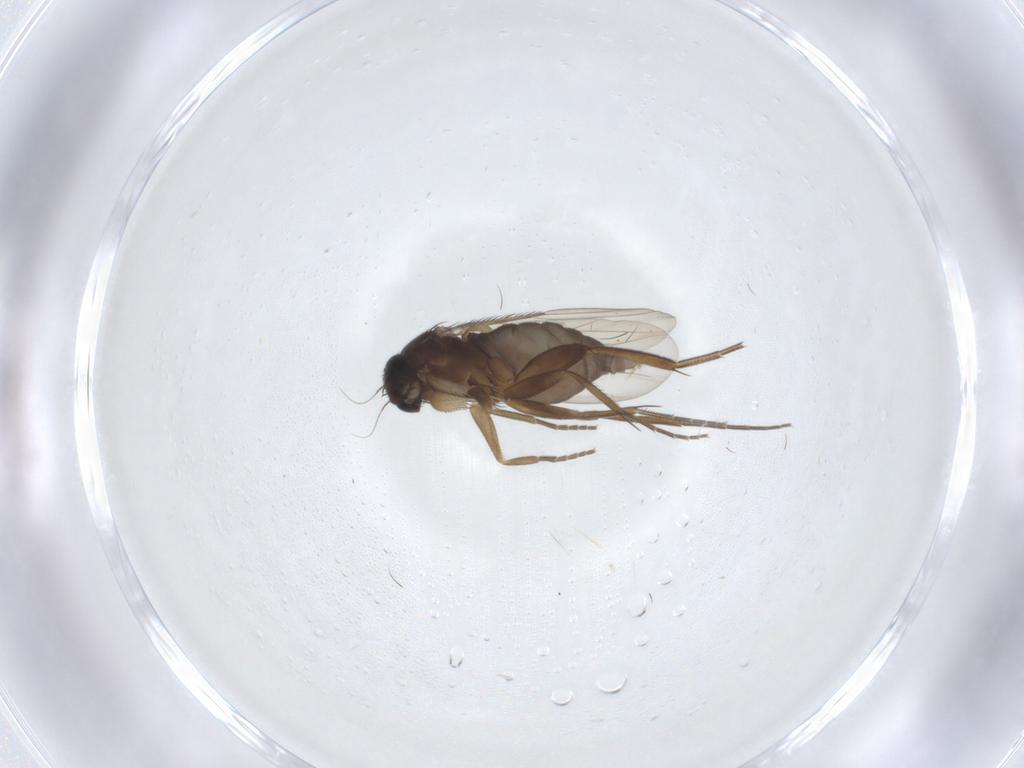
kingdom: Animalia
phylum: Arthropoda
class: Insecta
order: Diptera
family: Phoridae
